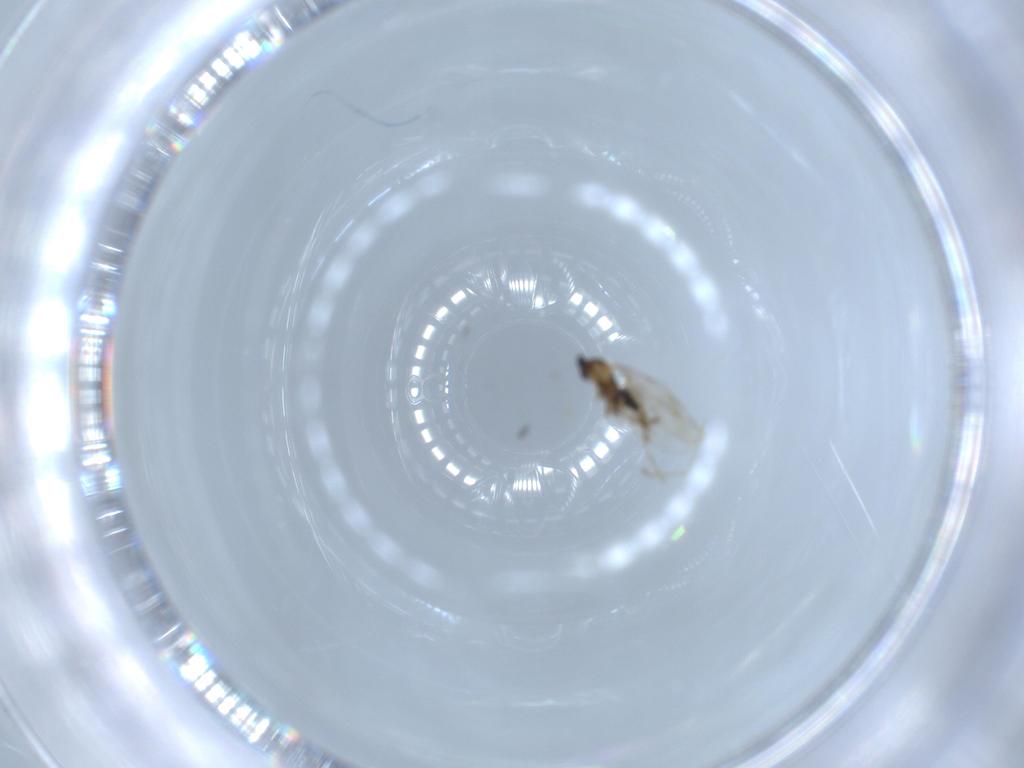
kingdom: Animalia
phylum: Arthropoda
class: Insecta
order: Diptera
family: Cecidomyiidae
